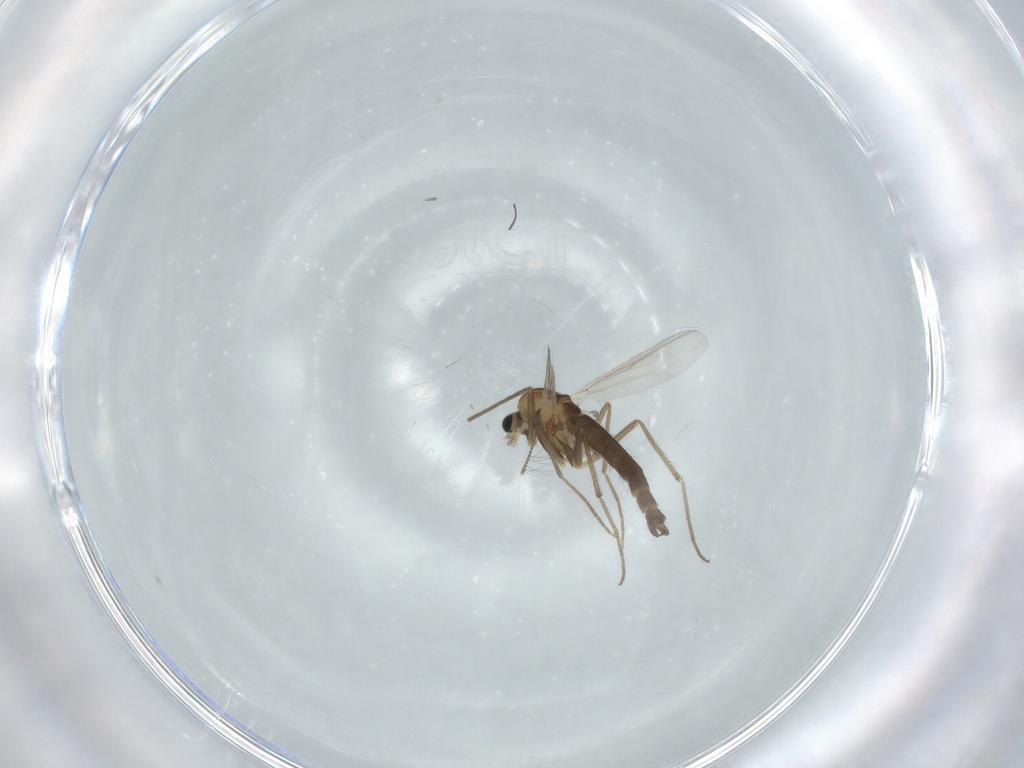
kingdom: Animalia
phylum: Arthropoda
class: Insecta
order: Diptera
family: Chironomidae
